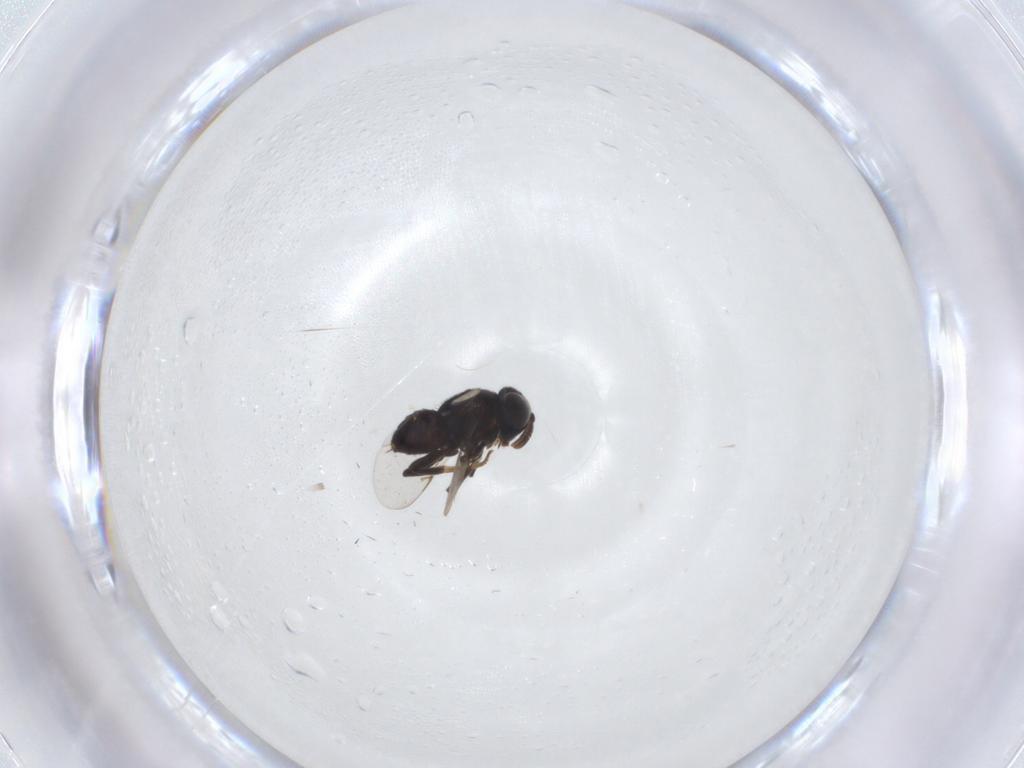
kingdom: Animalia
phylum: Arthropoda
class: Insecta
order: Hymenoptera
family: Encyrtidae
